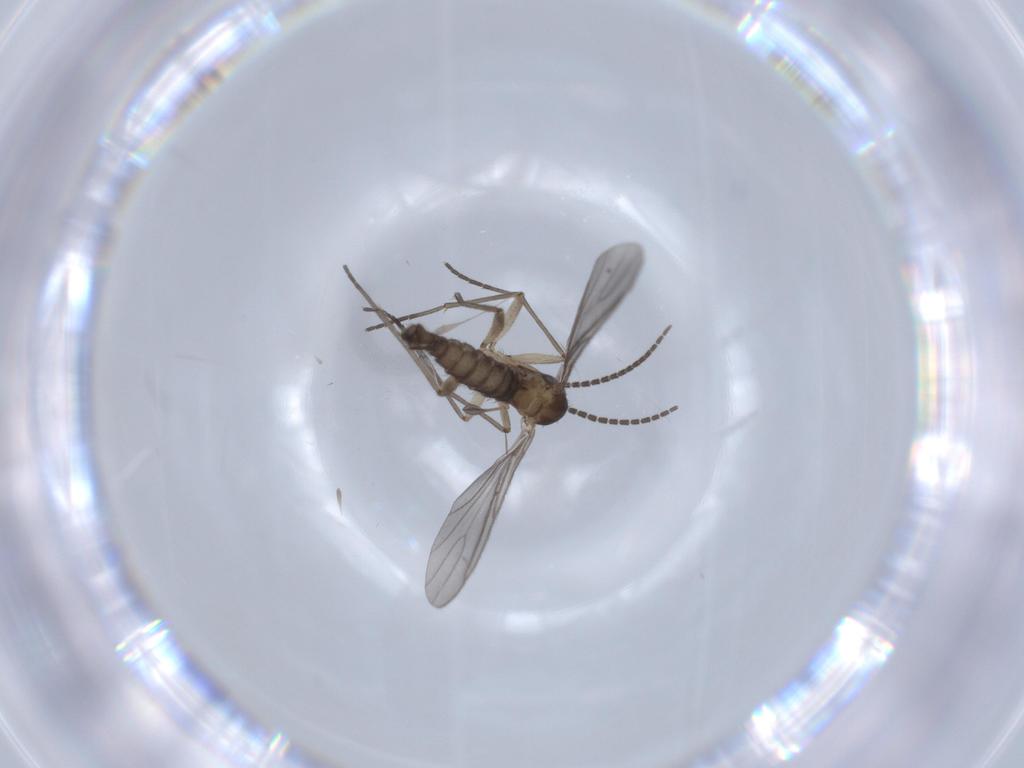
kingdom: Animalia
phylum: Arthropoda
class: Insecta
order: Diptera
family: Sciaridae
